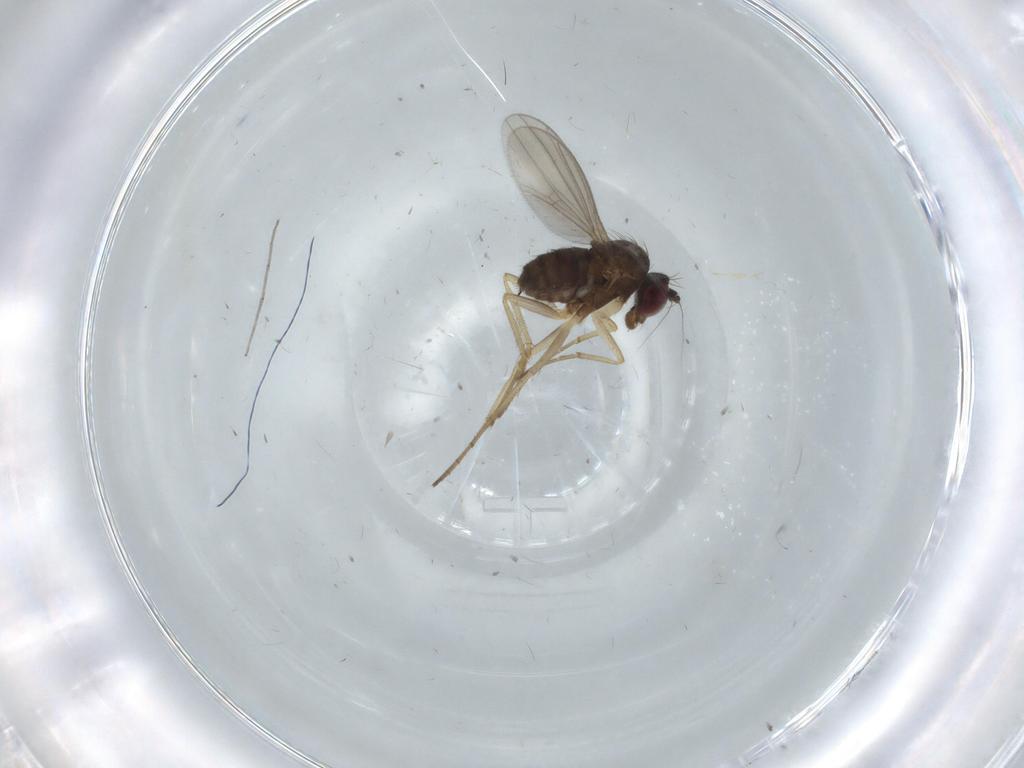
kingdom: Animalia
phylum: Arthropoda
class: Insecta
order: Diptera
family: Dolichopodidae
